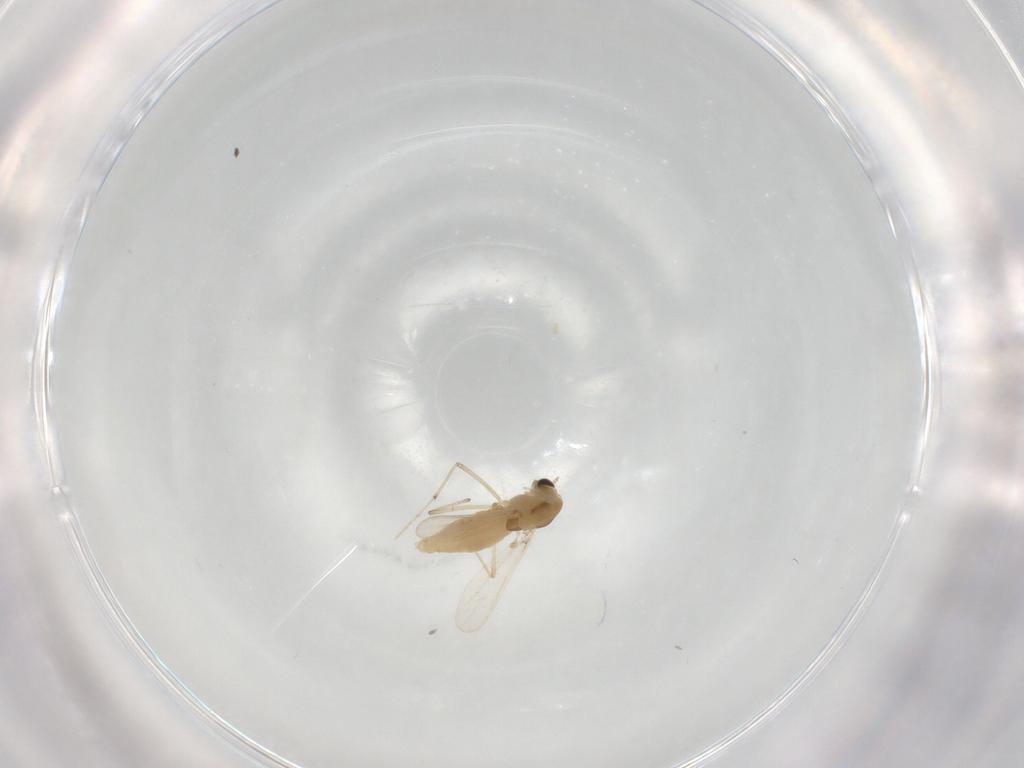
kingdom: Animalia
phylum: Arthropoda
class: Insecta
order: Diptera
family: Chironomidae
